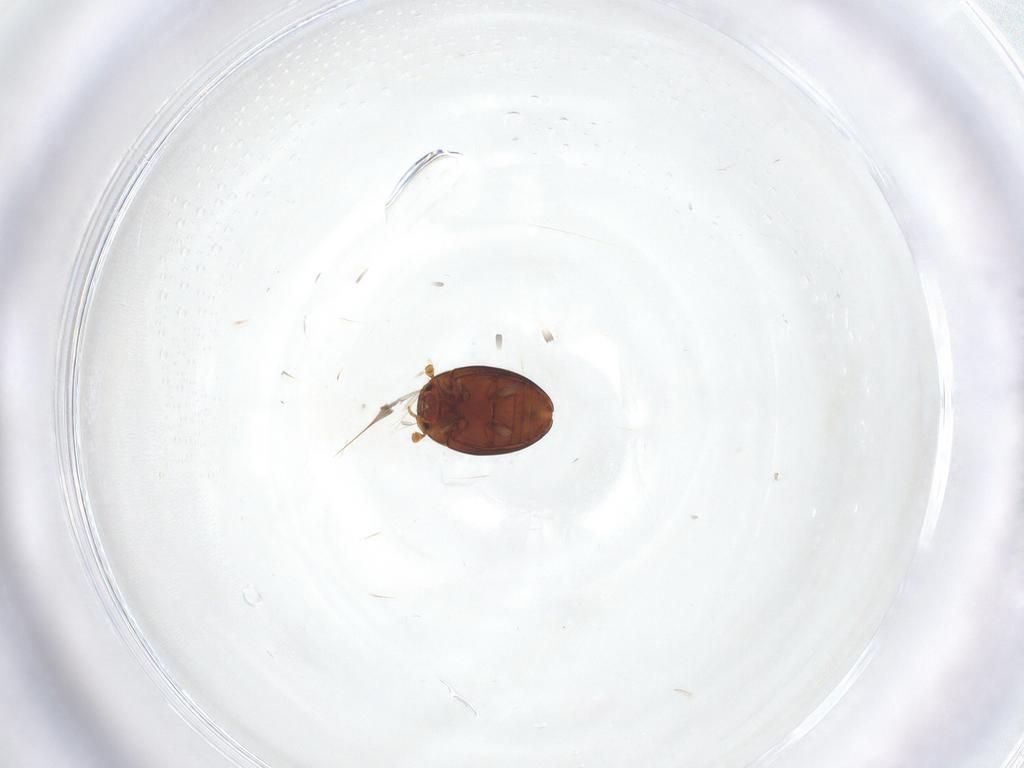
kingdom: Animalia
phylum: Arthropoda
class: Insecta
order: Coleoptera
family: Eupsilobiidae
